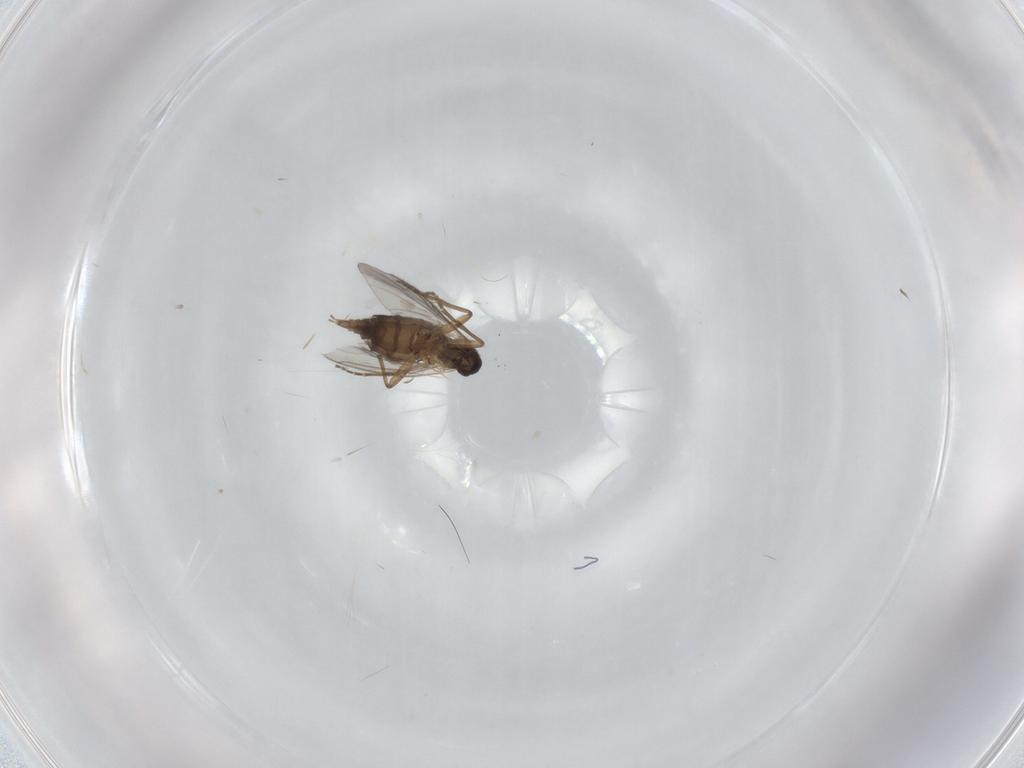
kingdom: Animalia
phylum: Arthropoda
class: Insecta
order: Diptera
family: Sciaridae
